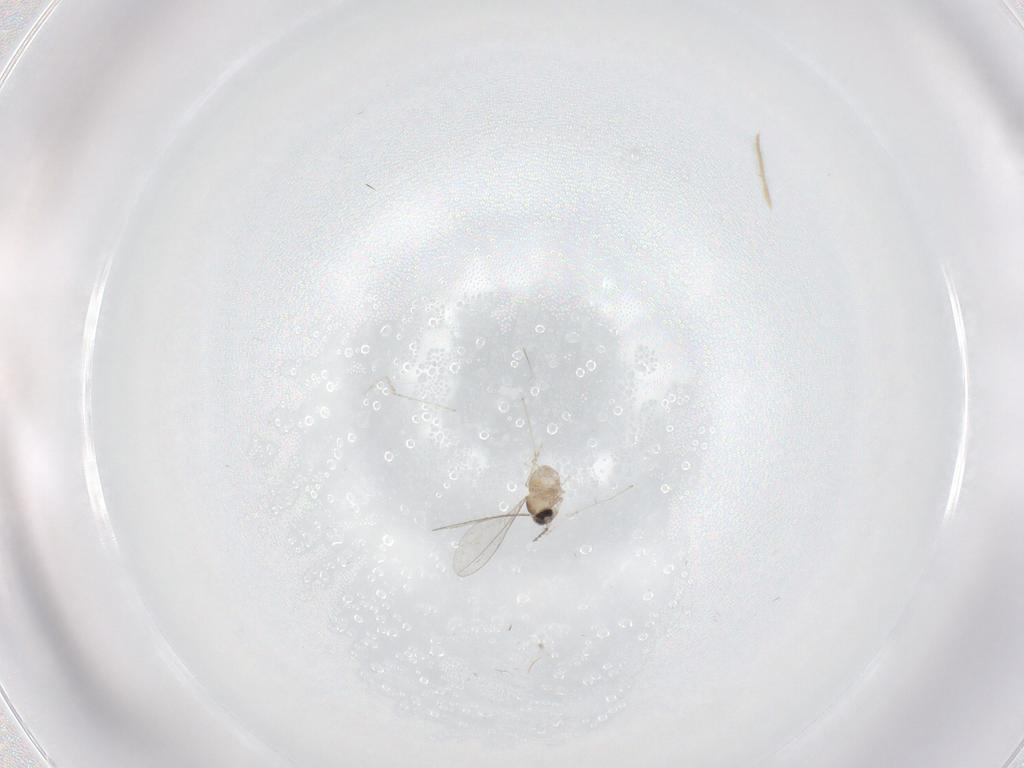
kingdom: Animalia
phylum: Arthropoda
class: Insecta
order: Diptera
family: Cecidomyiidae
